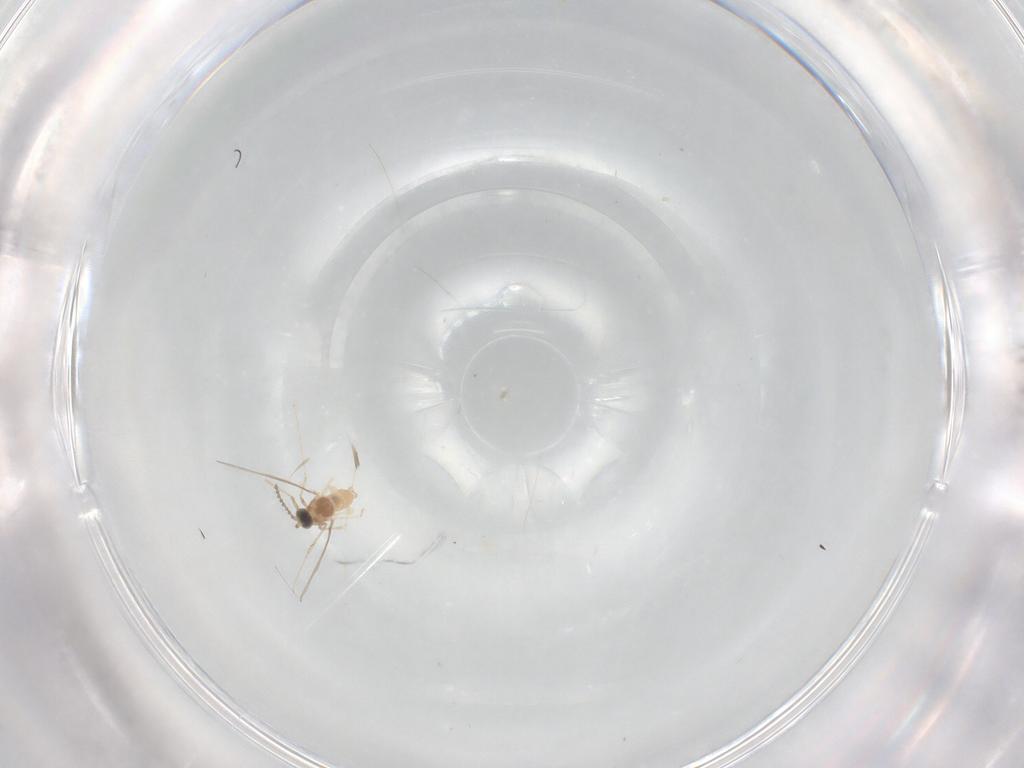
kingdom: Animalia
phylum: Arthropoda
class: Insecta
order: Diptera
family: Cecidomyiidae
